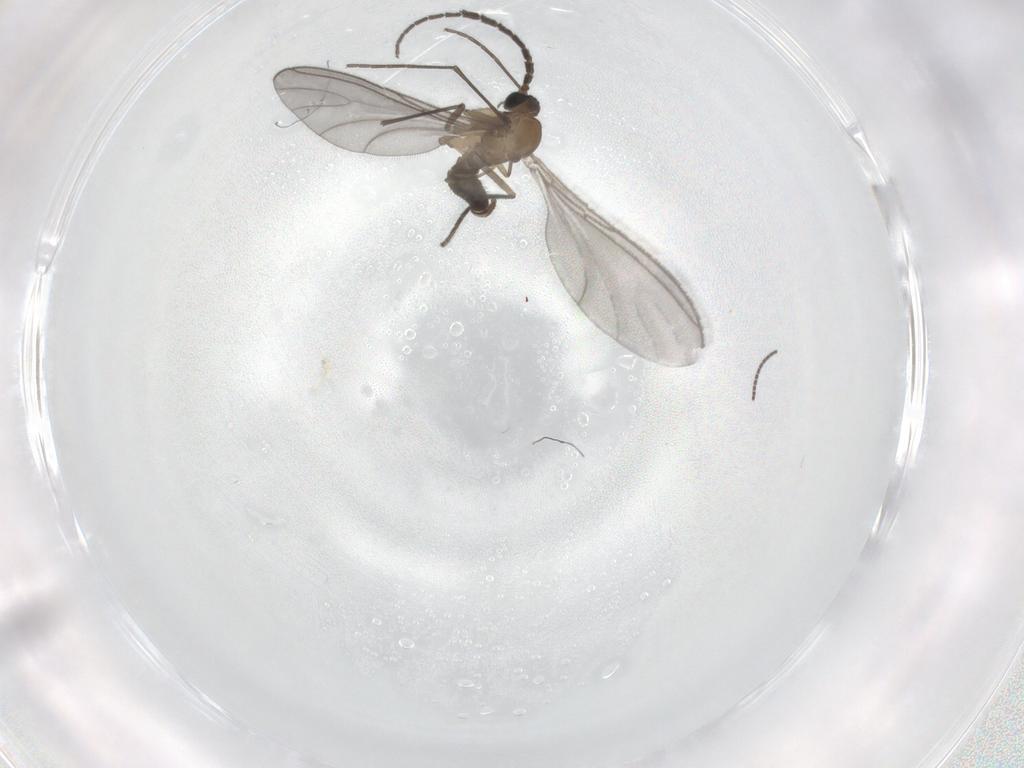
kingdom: Animalia
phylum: Arthropoda
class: Insecta
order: Diptera
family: Sciaridae
